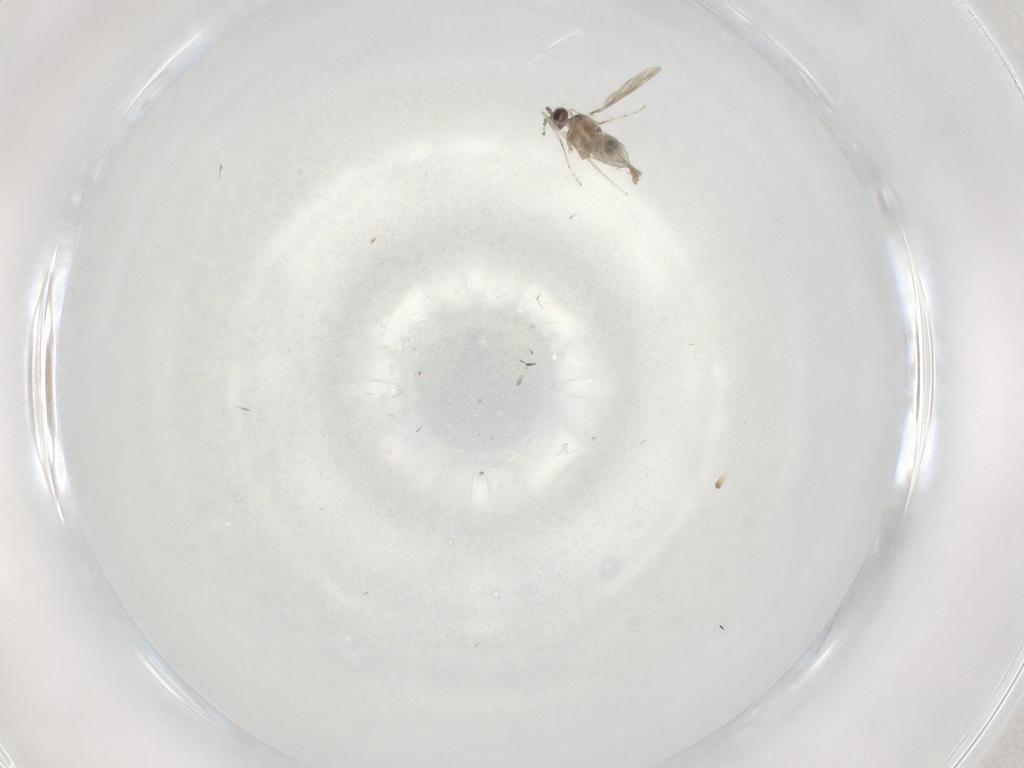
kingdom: Animalia
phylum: Arthropoda
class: Insecta
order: Diptera
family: Cecidomyiidae
